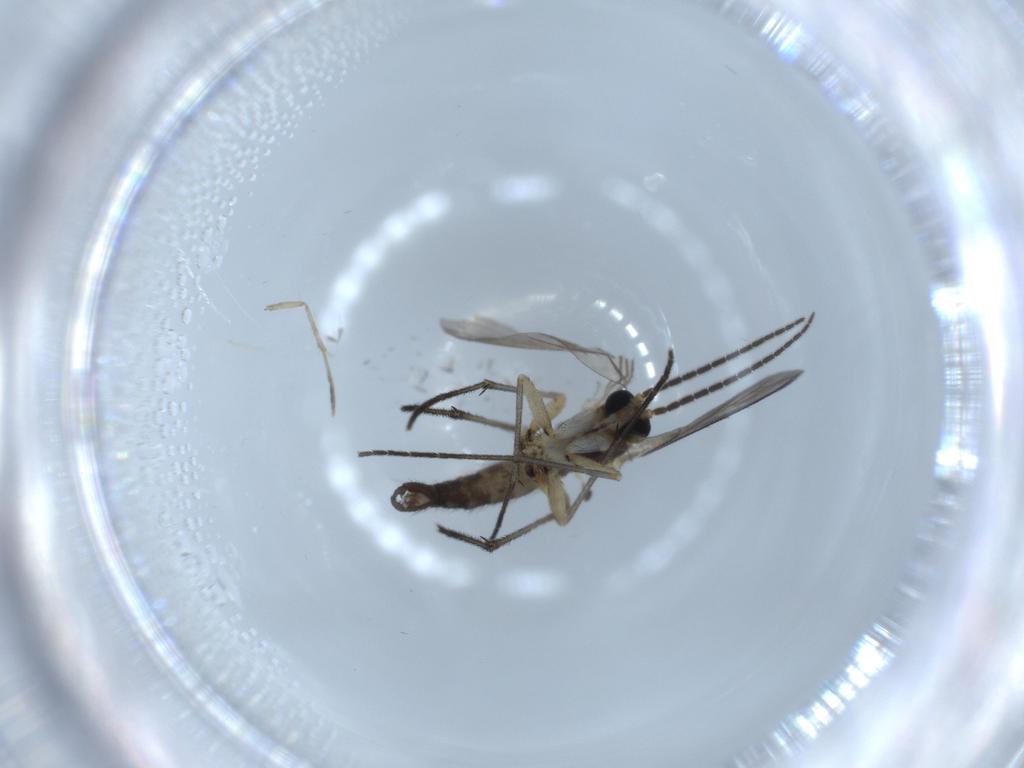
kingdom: Animalia
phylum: Arthropoda
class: Insecta
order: Diptera
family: Sciaridae
